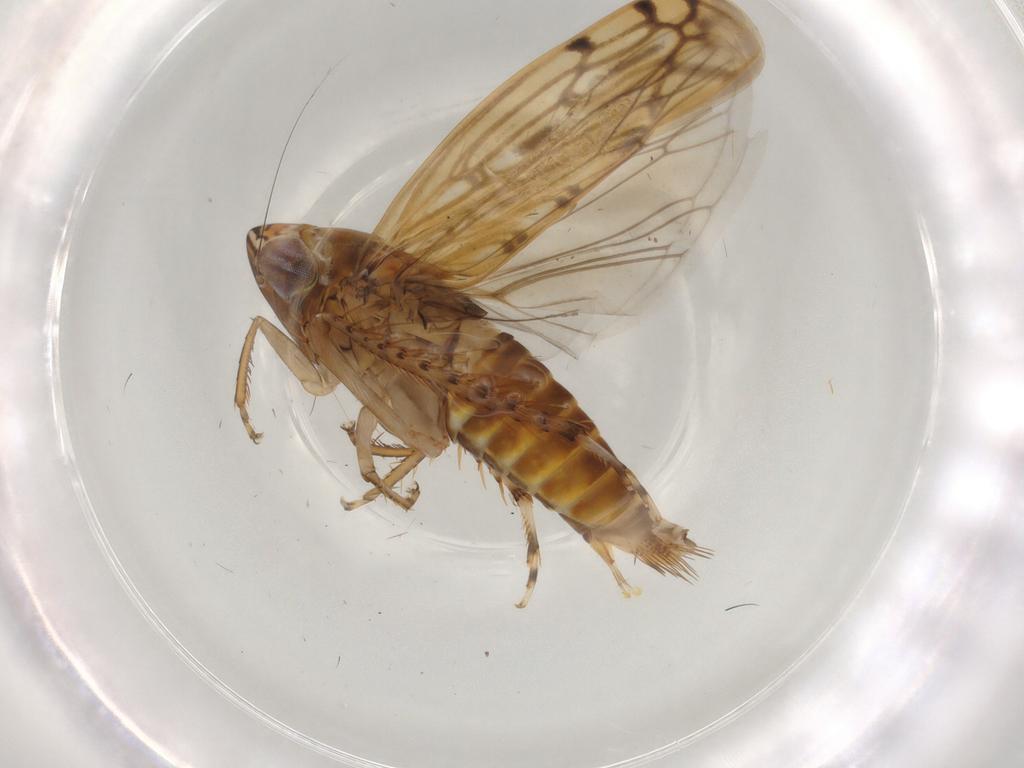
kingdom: Animalia
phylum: Arthropoda
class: Insecta
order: Hemiptera
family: Cicadellidae
